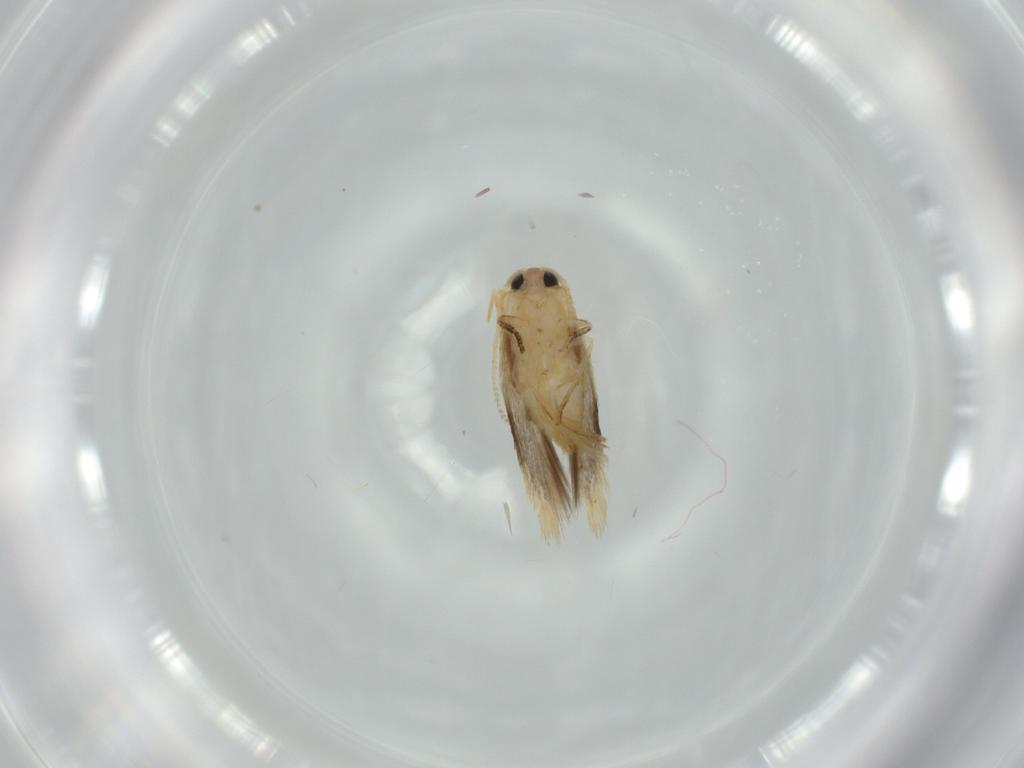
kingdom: Animalia
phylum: Arthropoda
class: Insecta
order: Lepidoptera
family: Nepticulidae
